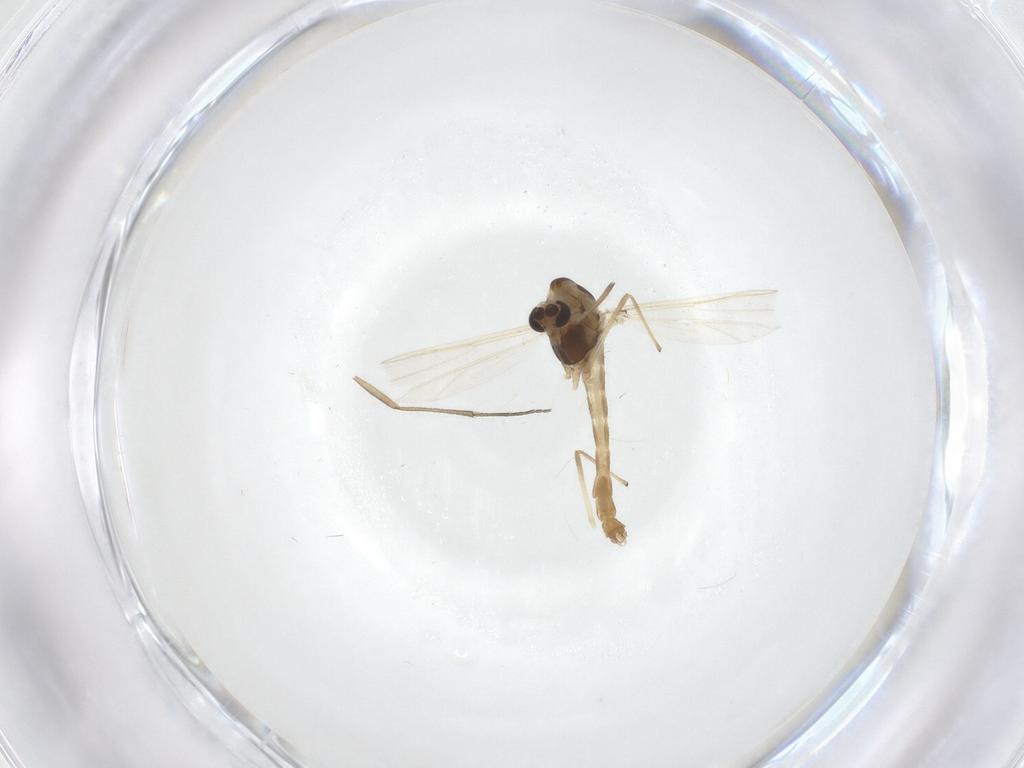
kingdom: Animalia
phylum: Arthropoda
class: Insecta
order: Diptera
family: Chironomidae
